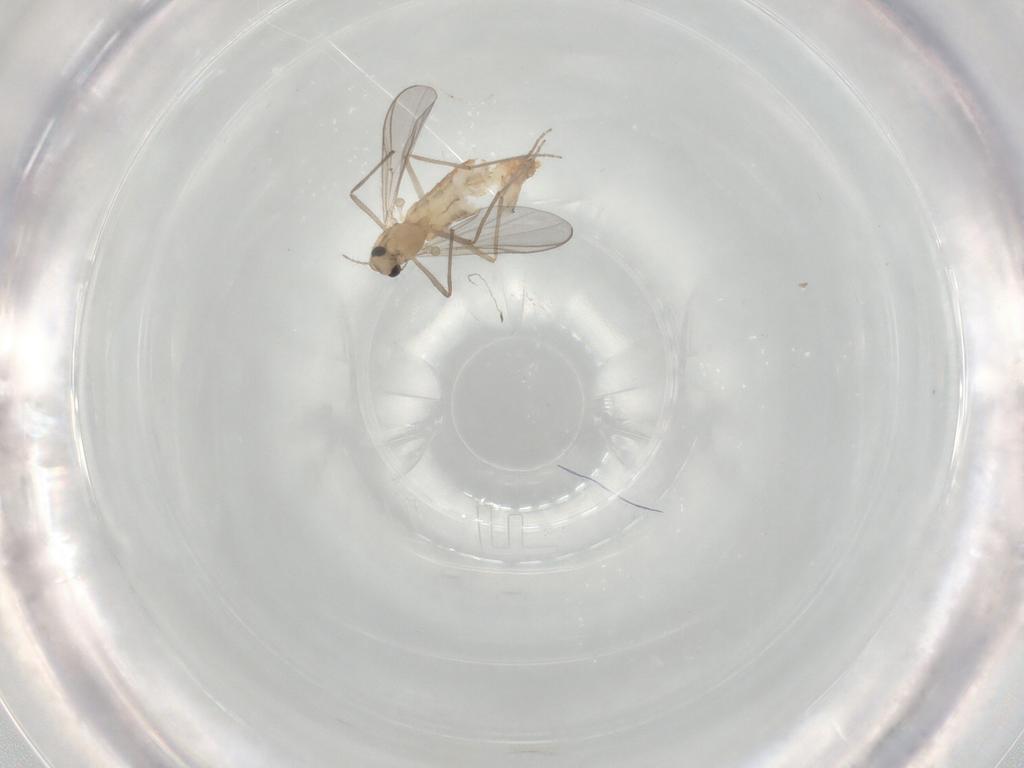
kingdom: Animalia
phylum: Arthropoda
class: Insecta
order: Diptera
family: Chironomidae
